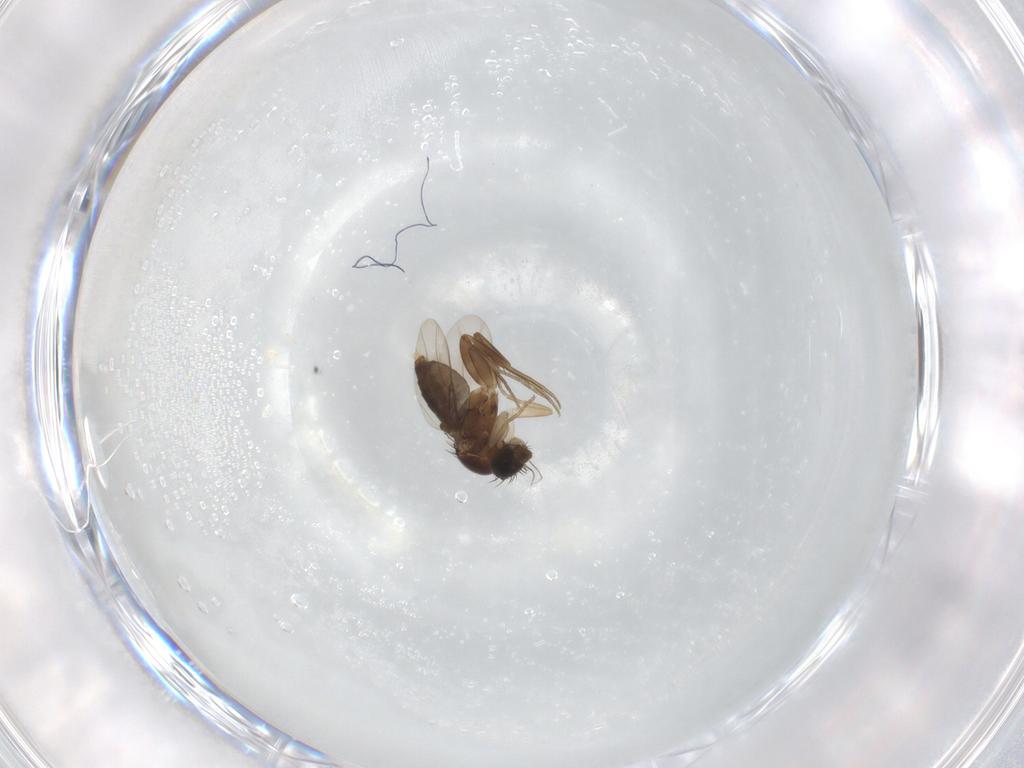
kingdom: Animalia
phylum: Arthropoda
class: Insecta
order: Diptera
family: Phoridae
